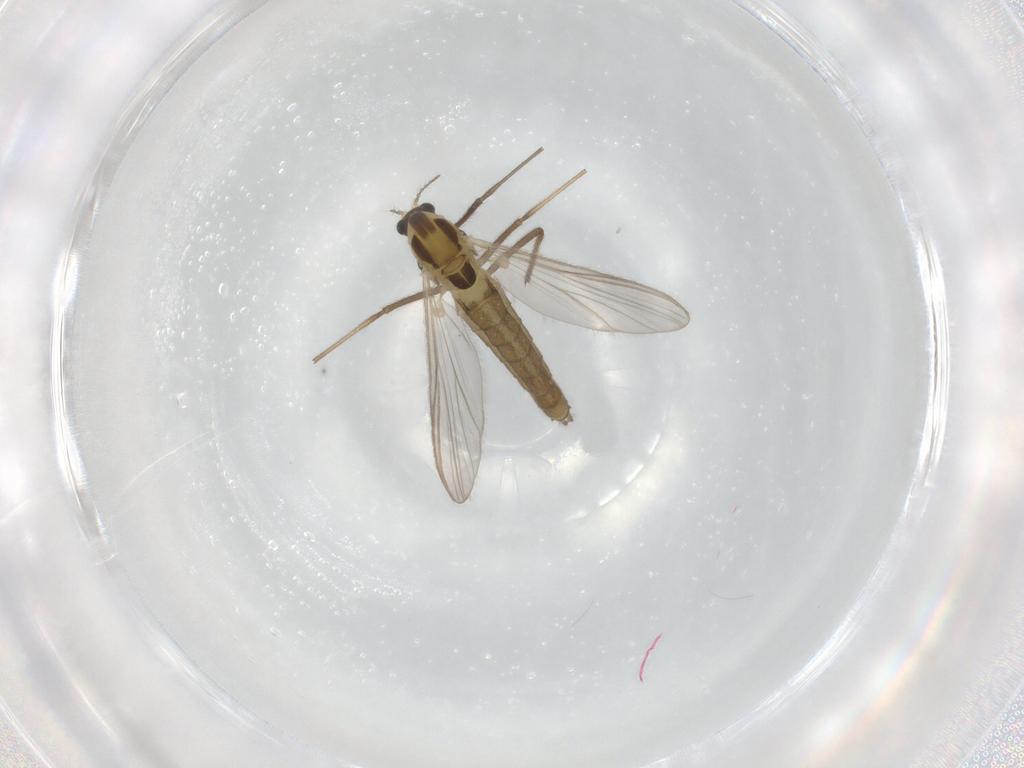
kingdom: Animalia
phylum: Arthropoda
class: Insecta
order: Diptera
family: Chironomidae
